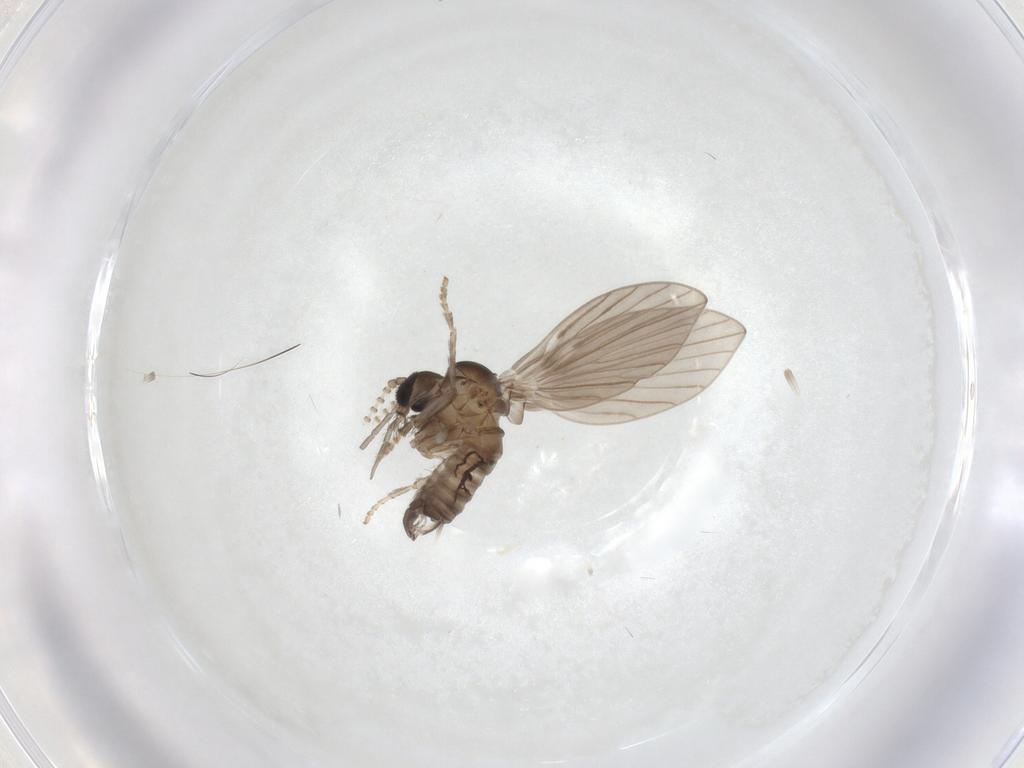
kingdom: Animalia
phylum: Arthropoda
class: Insecta
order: Diptera
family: Psychodidae
